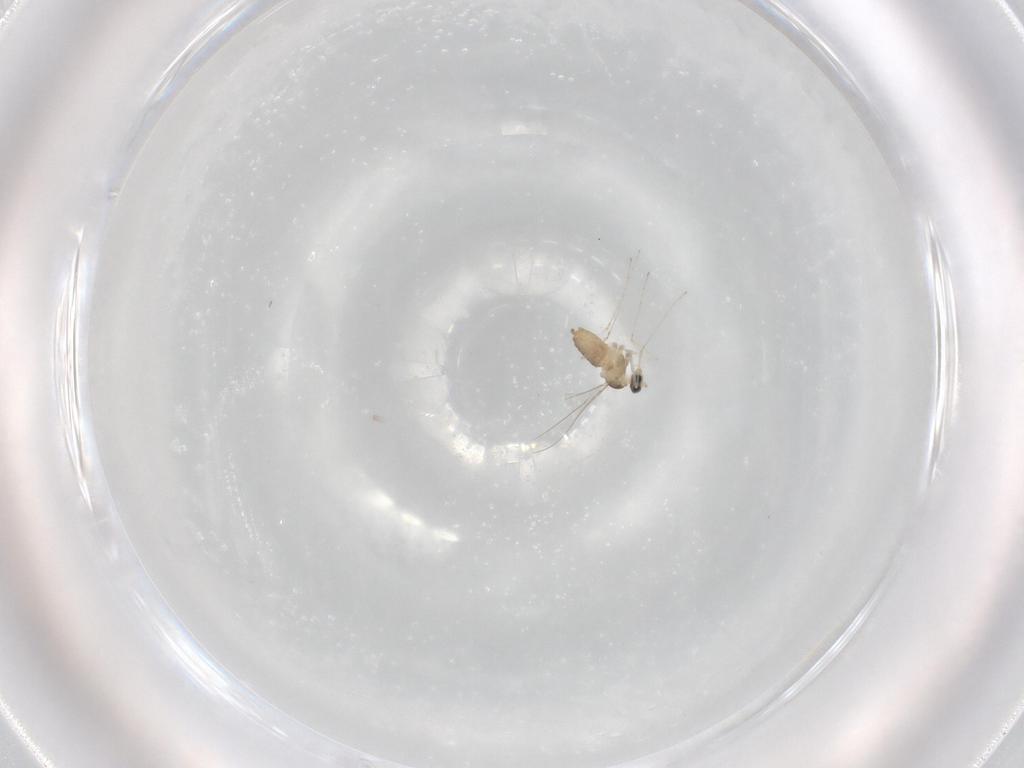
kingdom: Animalia
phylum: Arthropoda
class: Insecta
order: Diptera
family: Cecidomyiidae
